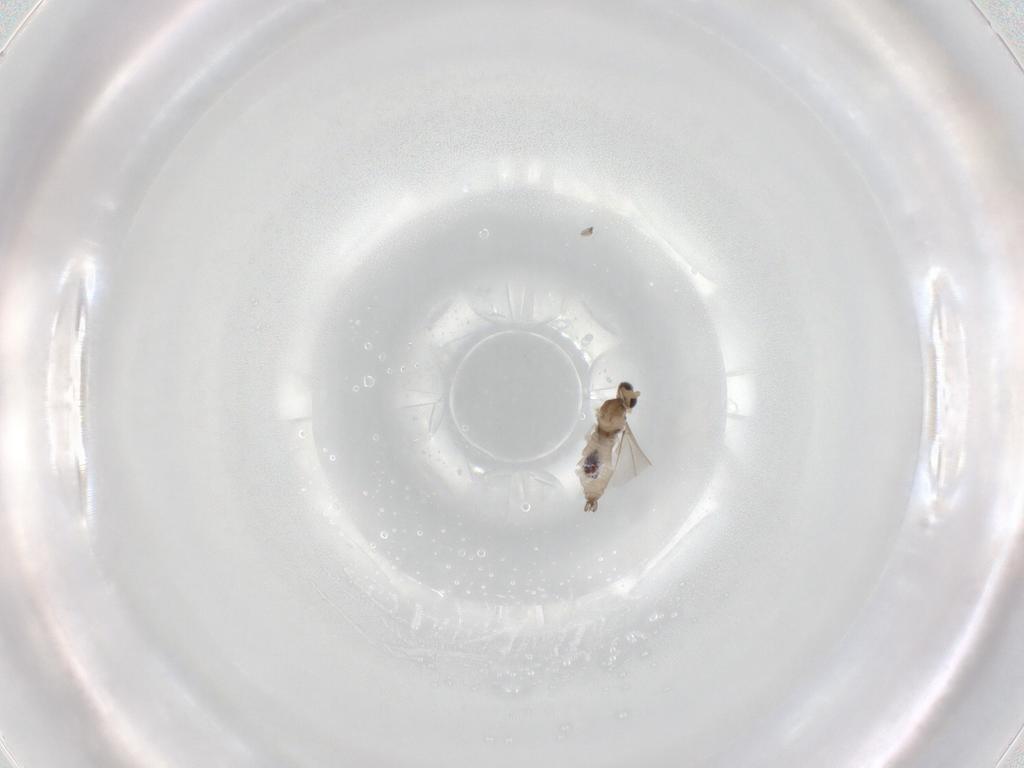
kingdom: Animalia
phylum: Arthropoda
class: Insecta
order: Diptera
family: Cecidomyiidae
